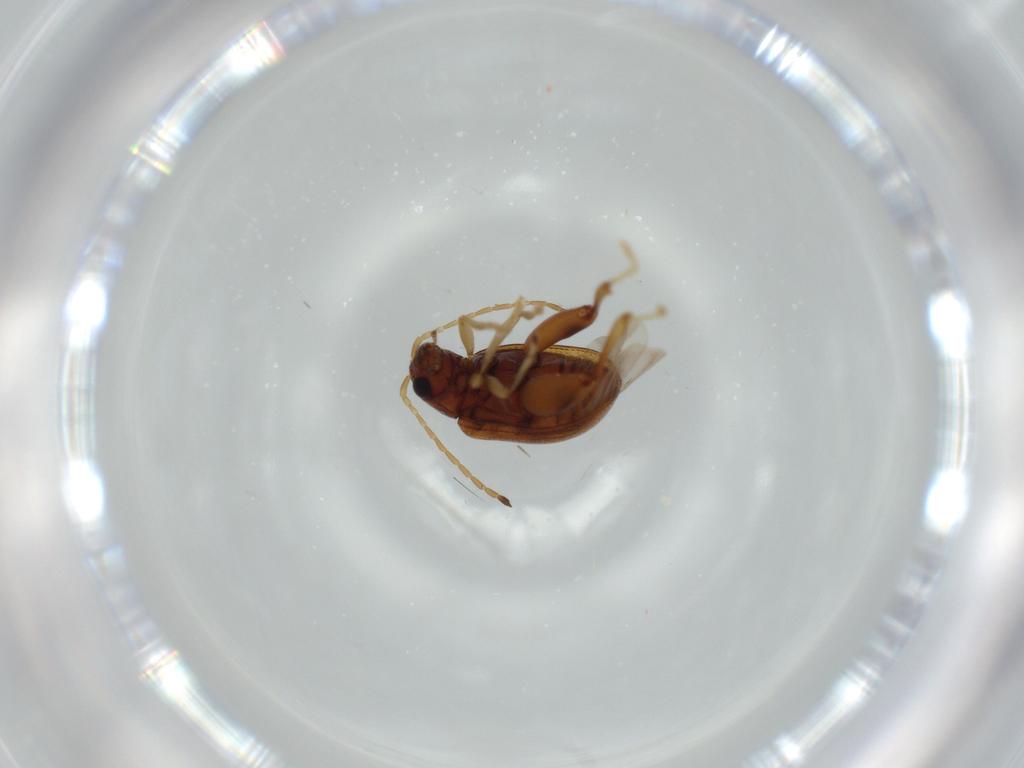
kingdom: Animalia
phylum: Arthropoda
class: Insecta
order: Coleoptera
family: Chrysomelidae
